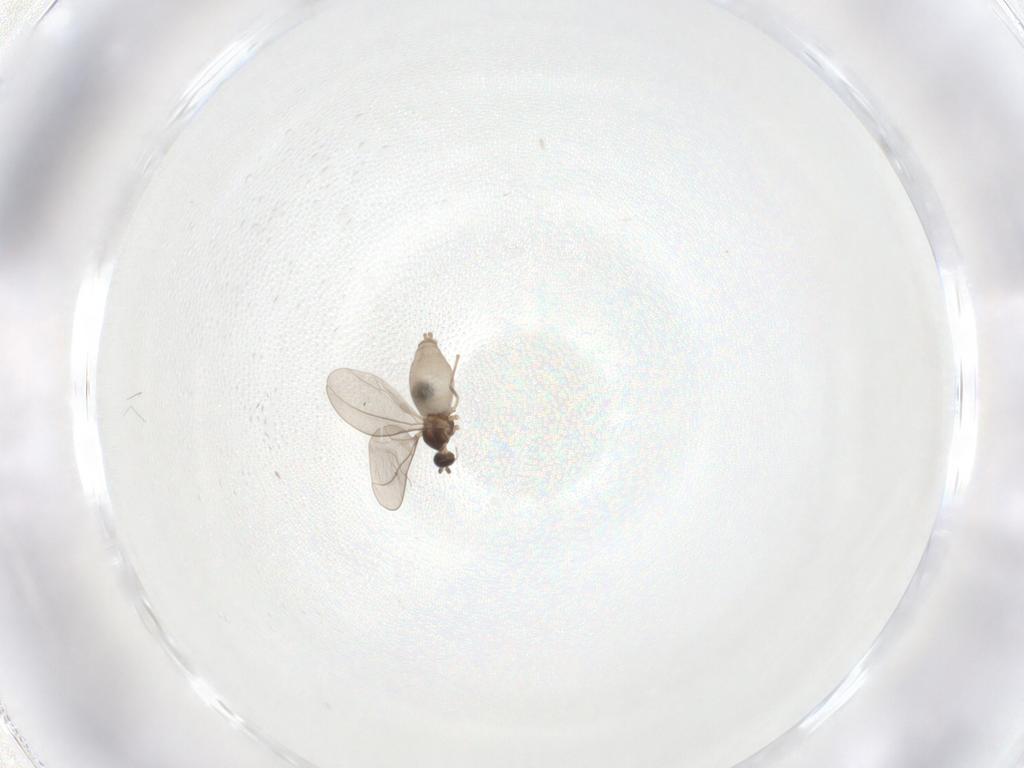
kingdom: Animalia
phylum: Arthropoda
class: Insecta
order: Diptera
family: Cecidomyiidae
